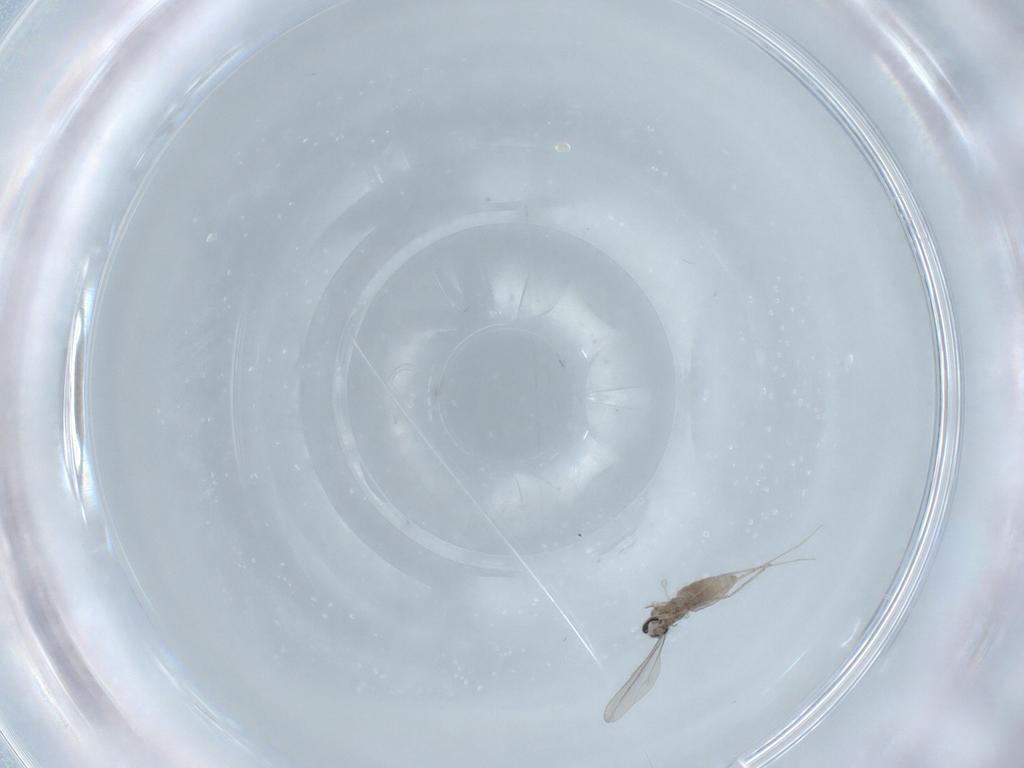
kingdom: Animalia
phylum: Arthropoda
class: Insecta
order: Diptera
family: Cecidomyiidae
